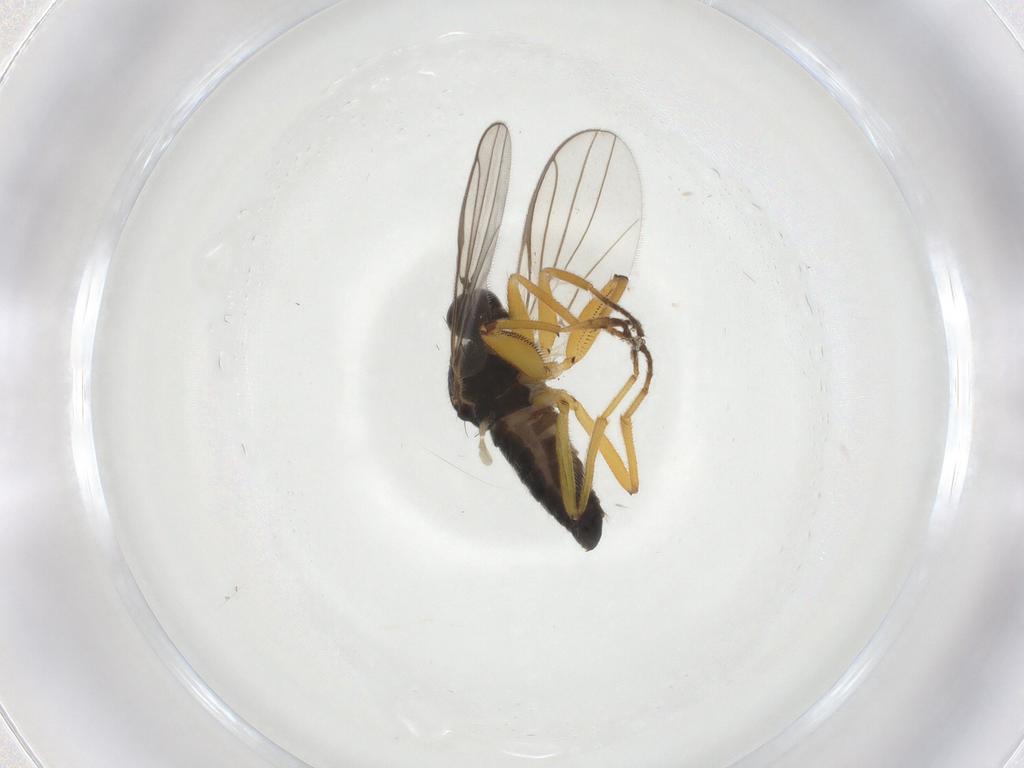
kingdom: Animalia
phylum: Arthropoda
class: Insecta
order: Diptera
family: Hybotidae
